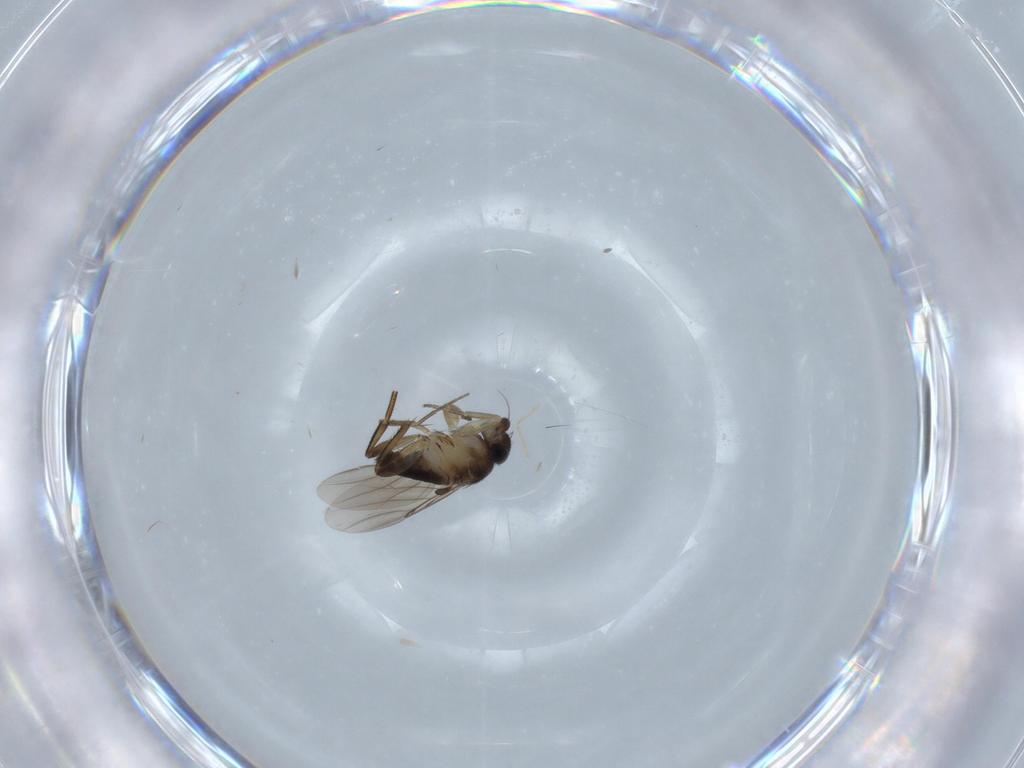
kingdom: Animalia
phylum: Arthropoda
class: Insecta
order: Diptera
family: Phoridae
